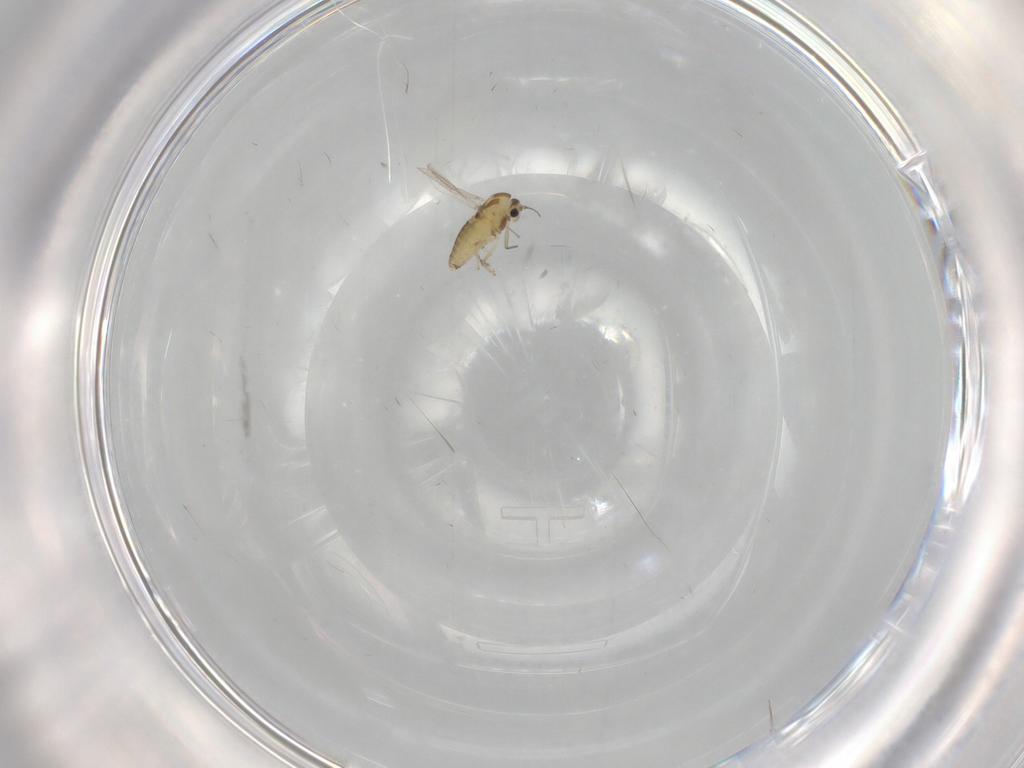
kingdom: Animalia
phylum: Arthropoda
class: Insecta
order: Diptera
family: Chironomidae
